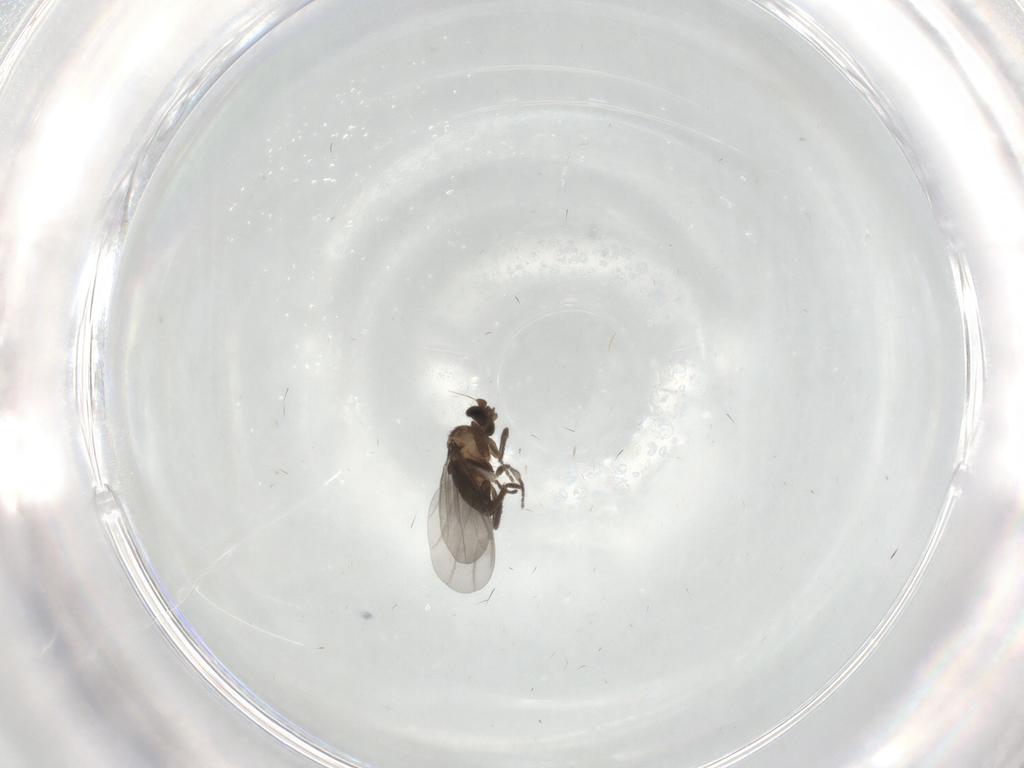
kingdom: Animalia
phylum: Arthropoda
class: Insecta
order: Diptera
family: Phoridae
